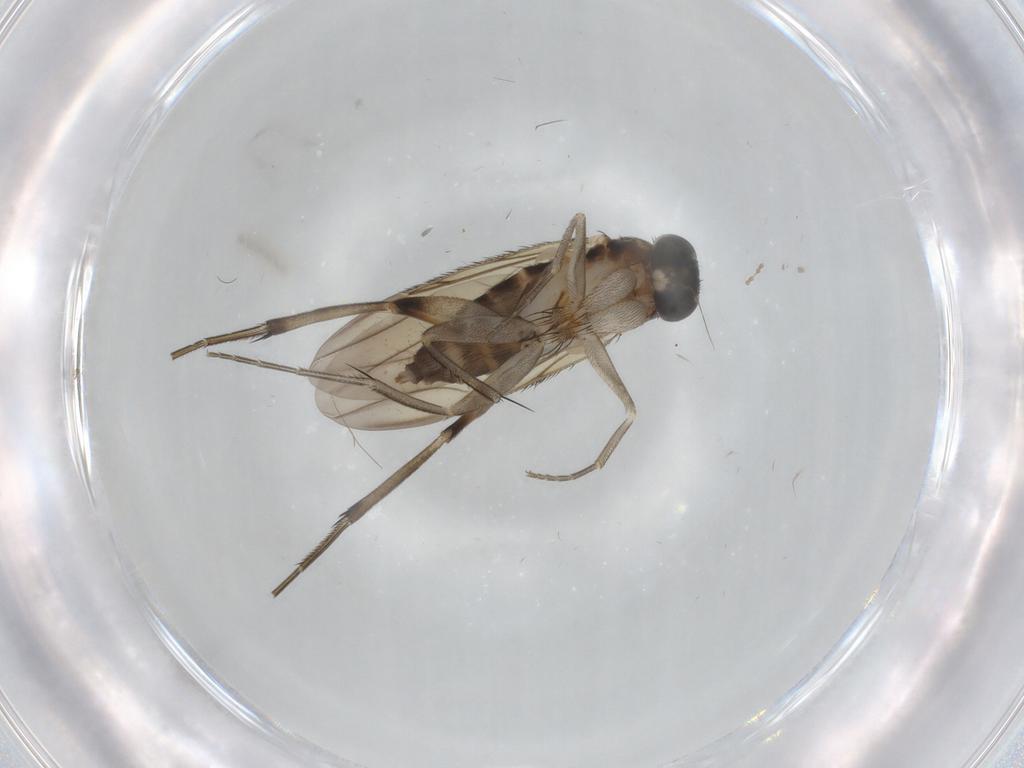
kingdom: Animalia
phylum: Arthropoda
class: Insecta
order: Diptera
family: Phoridae
